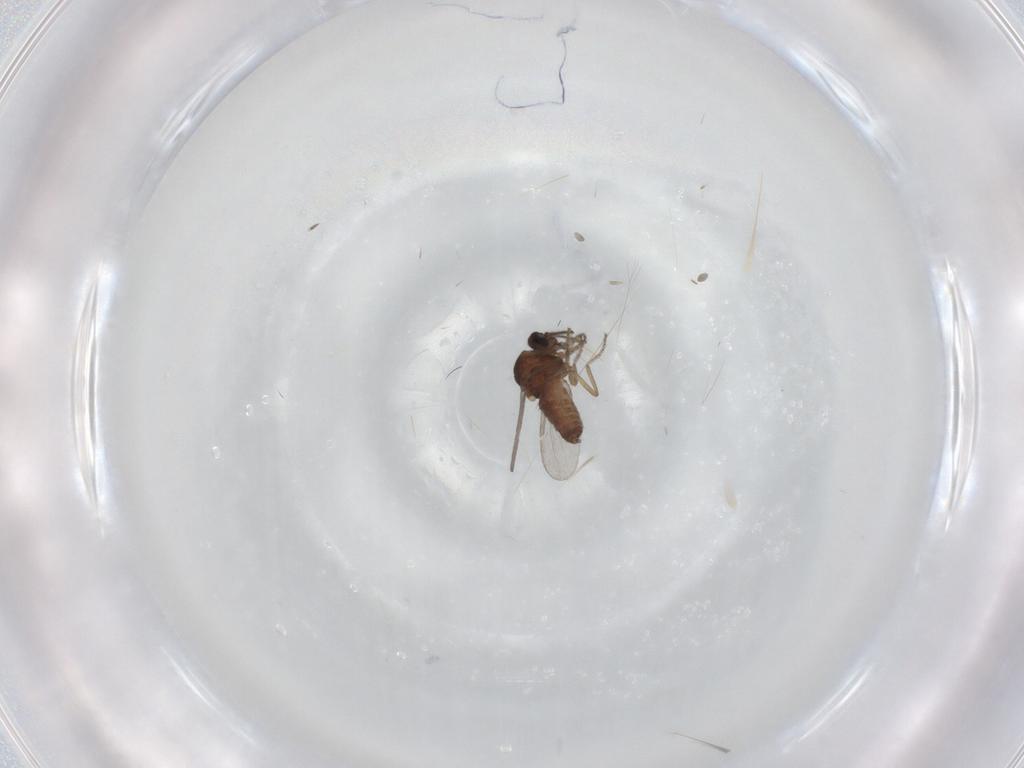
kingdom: Animalia
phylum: Arthropoda
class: Insecta
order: Diptera
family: Ceratopogonidae
